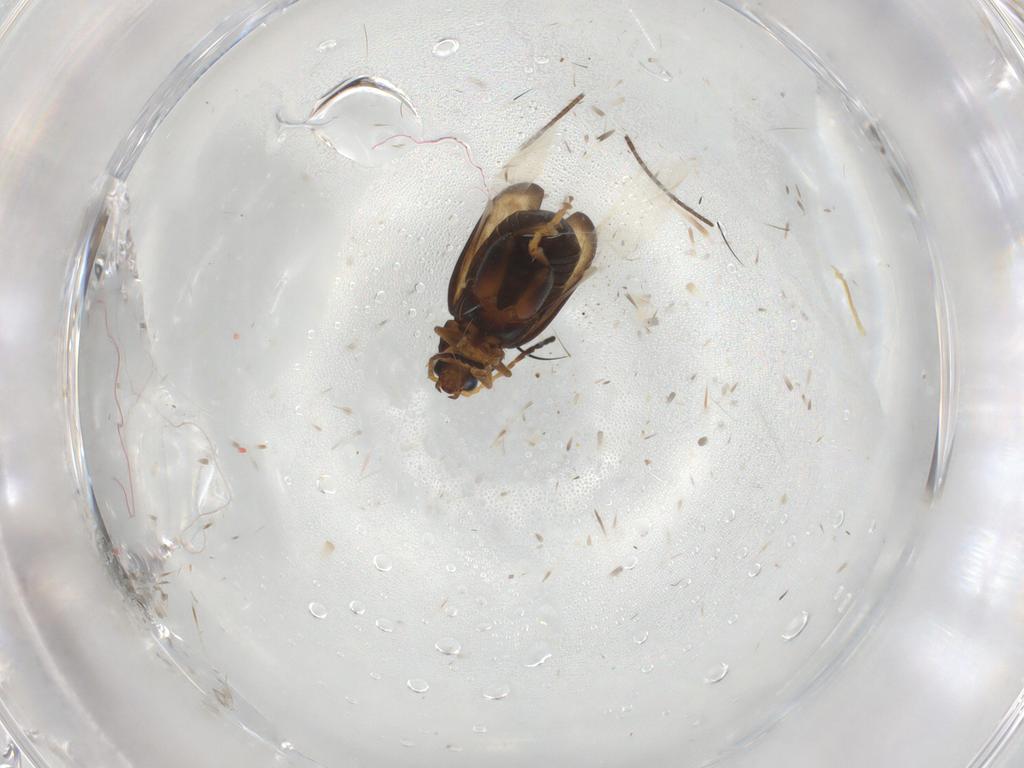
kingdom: Animalia
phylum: Arthropoda
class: Insecta
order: Coleoptera
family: Chrysomelidae
